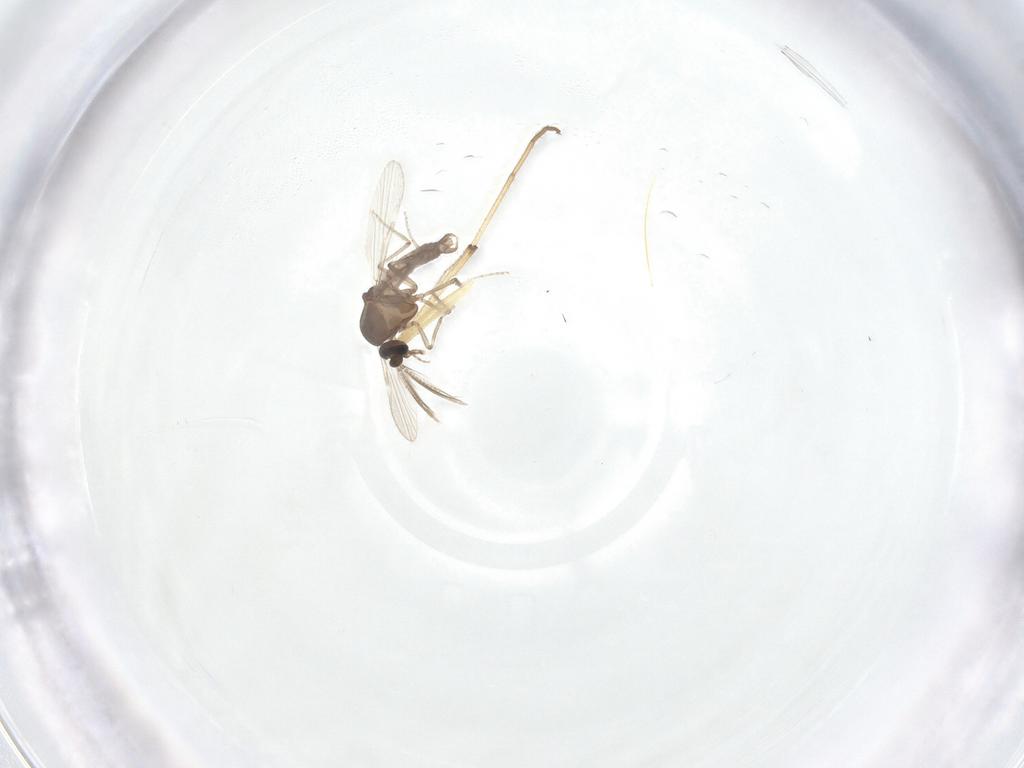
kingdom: Animalia
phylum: Arthropoda
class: Insecta
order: Diptera
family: Ceratopogonidae
